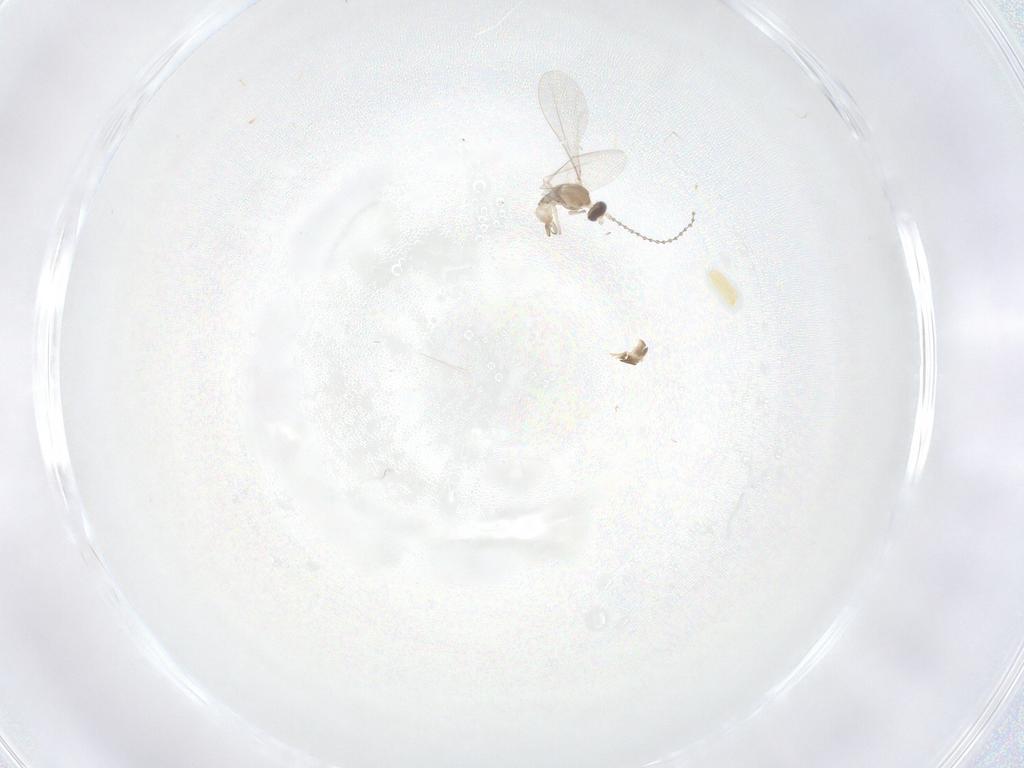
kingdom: Animalia
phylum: Arthropoda
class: Insecta
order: Diptera
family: Cecidomyiidae
